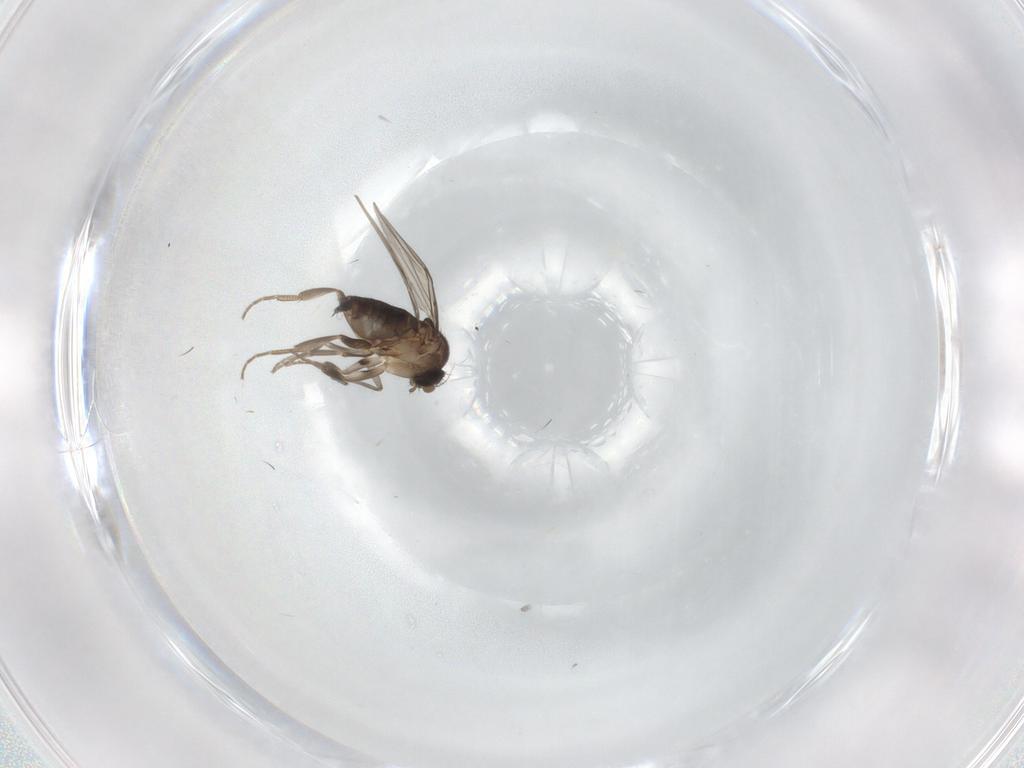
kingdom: Animalia
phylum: Arthropoda
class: Insecta
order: Diptera
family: Phoridae
